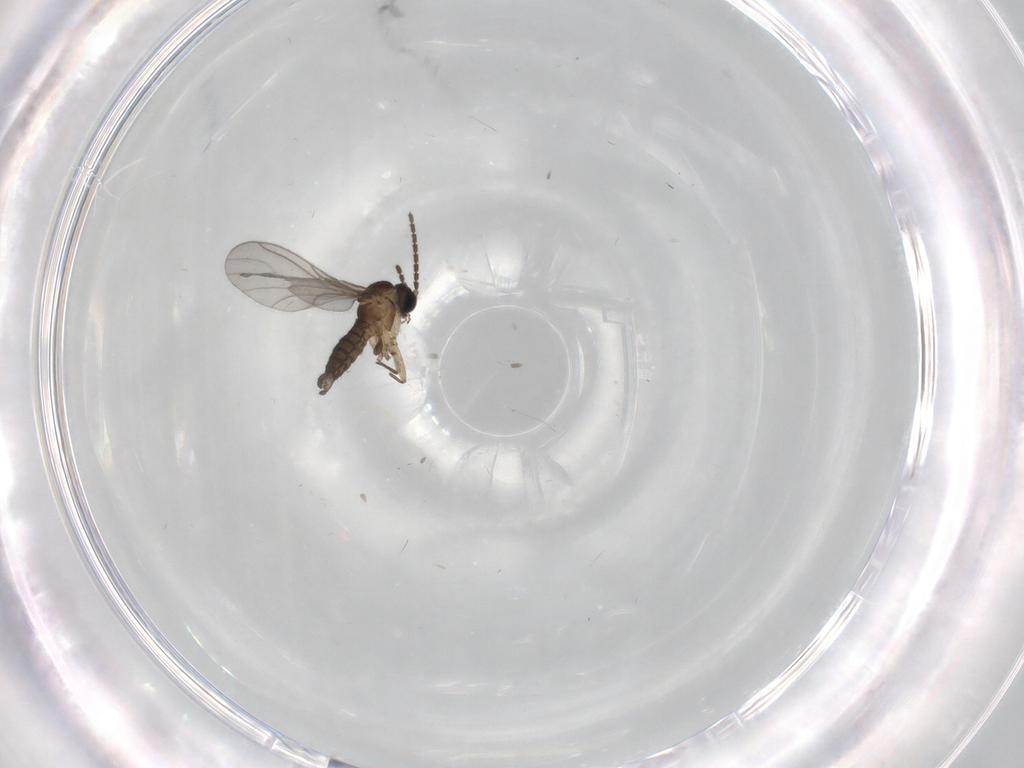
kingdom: Animalia
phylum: Arthropoda
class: Insecta
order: Diptera
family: Sciaridae
